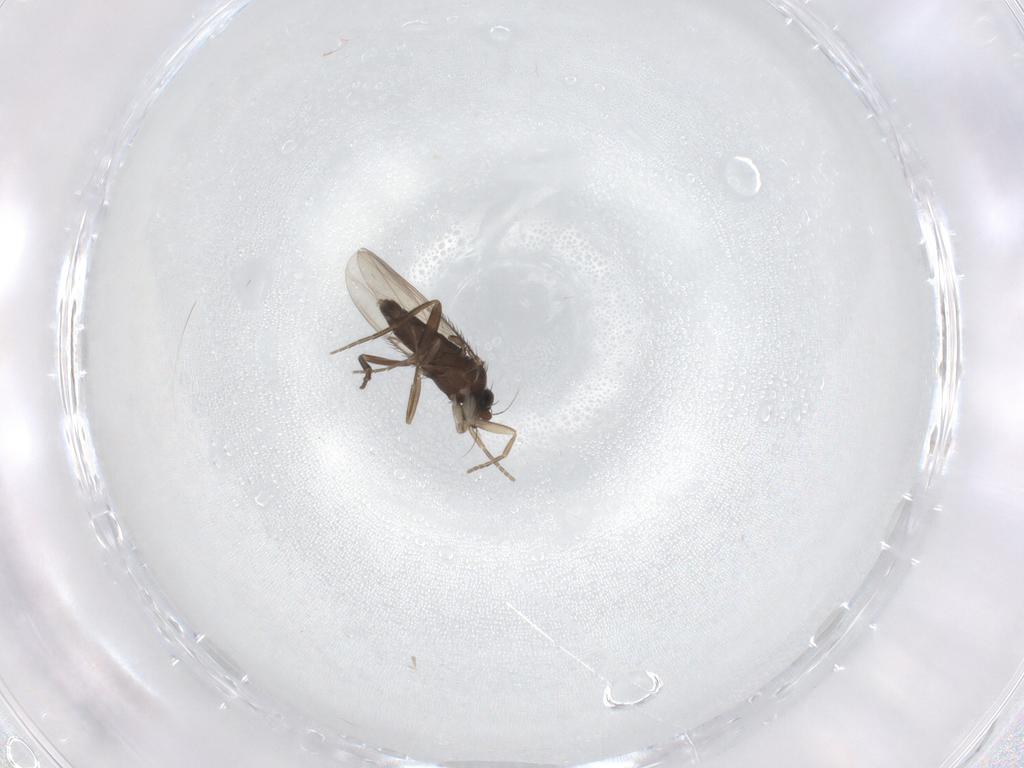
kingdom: Animalia
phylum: Arthropoda
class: Insecta
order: Diptera
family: Phoridae
